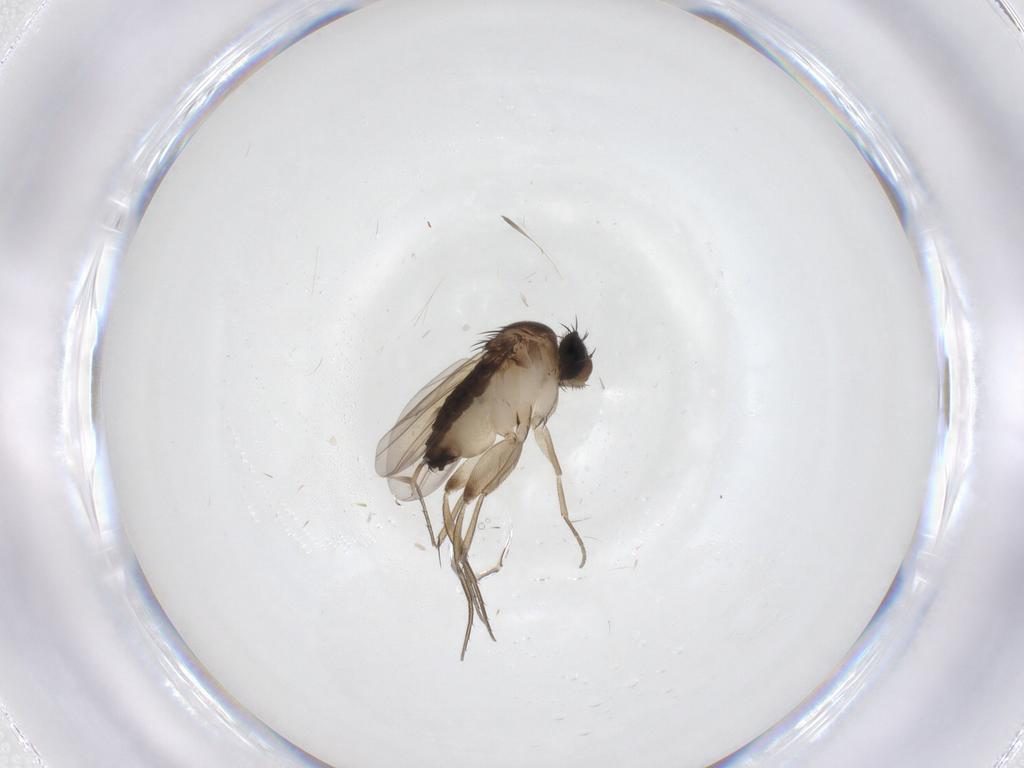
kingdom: Animalia
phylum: Arthropoda
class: Insecta
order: Diptera
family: Phoridae
